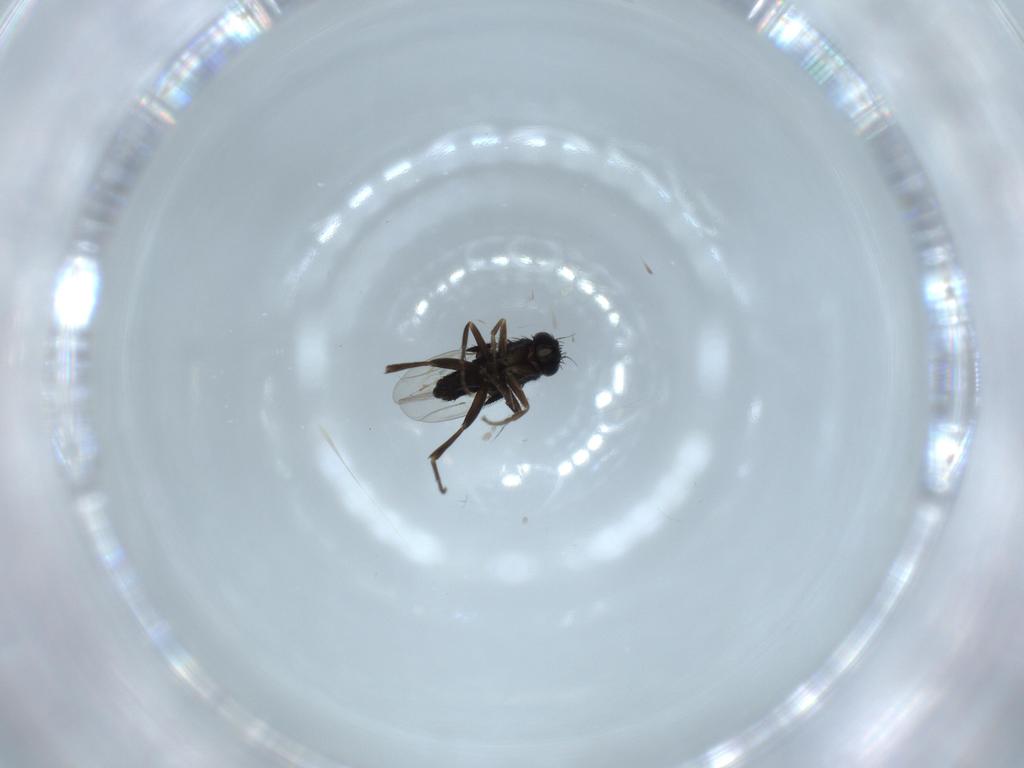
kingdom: Animalia
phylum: Arthropoda
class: Insecta
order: Diptera
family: Phoridae
